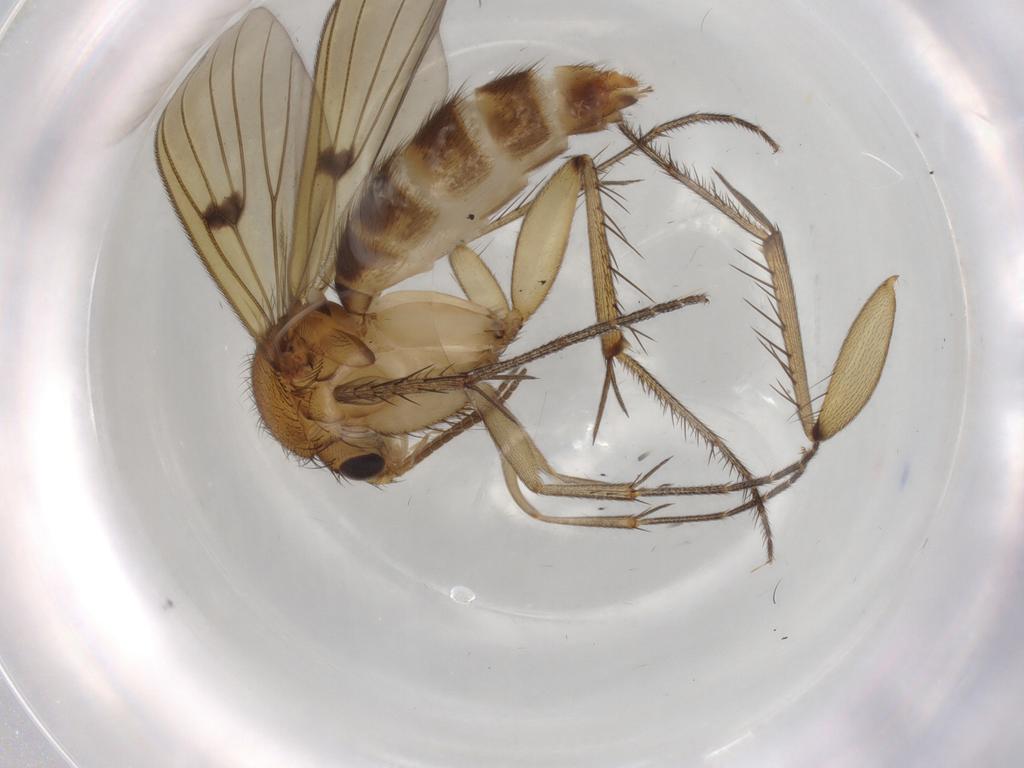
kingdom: Animalia
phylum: Arthropoda
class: Insecta
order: Diptera
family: Mycetophilidae
